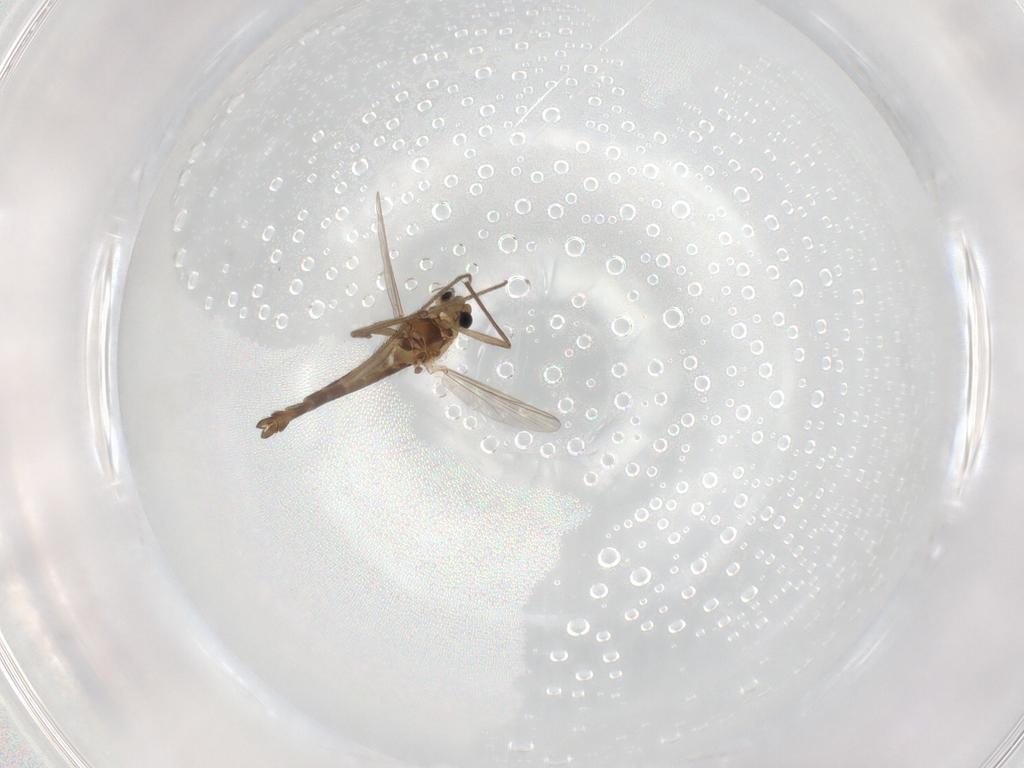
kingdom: Animalia
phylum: Arthropoda
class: Insecta
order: Diptera
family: Chironomidae
